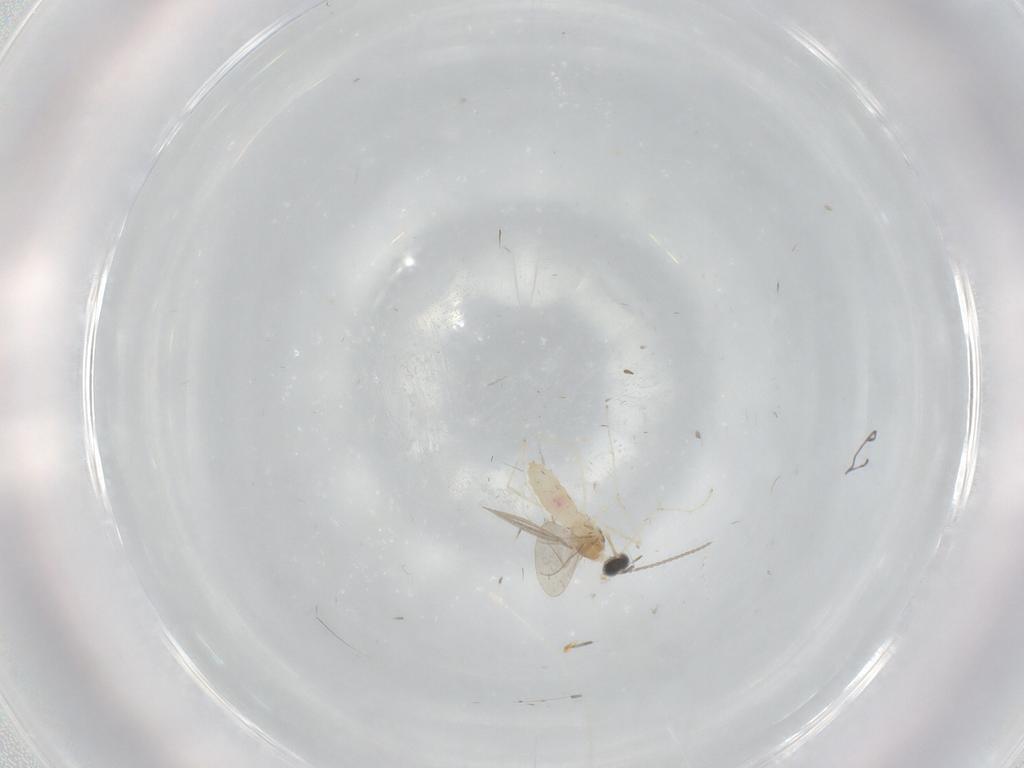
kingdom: Animalia
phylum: Arthropoda
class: Insecta
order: Diptera
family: Cecidomyiidae
